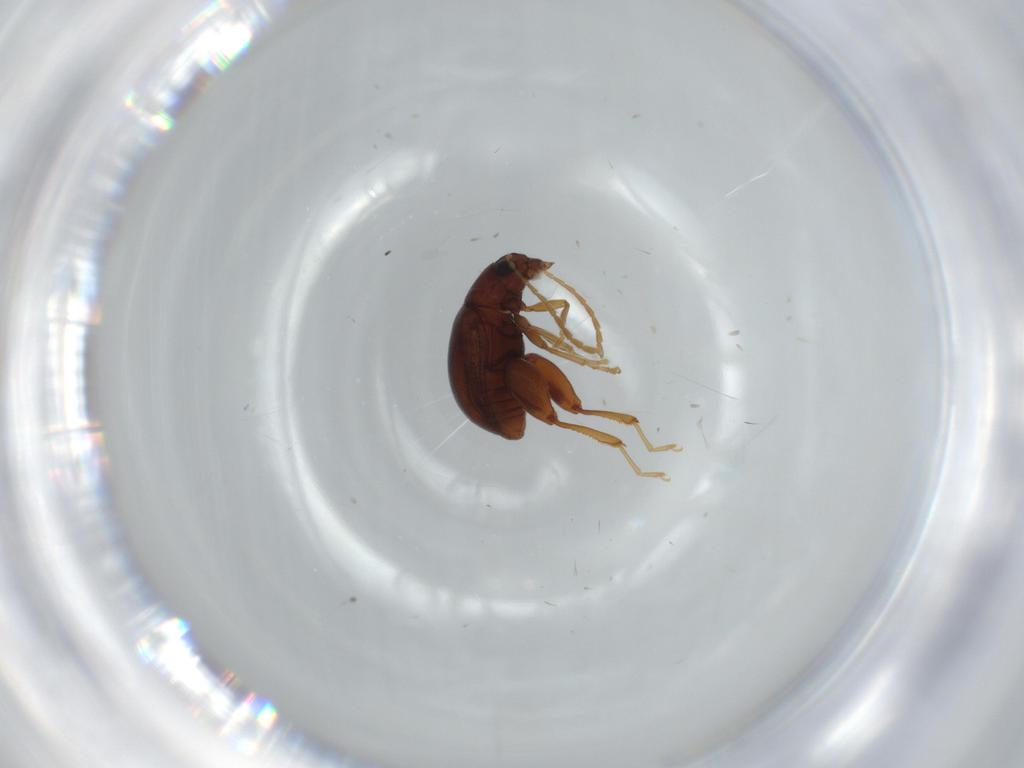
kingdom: Animalia
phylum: Arthropoda
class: Insecta
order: Coleoptera
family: Chrysomelidae
